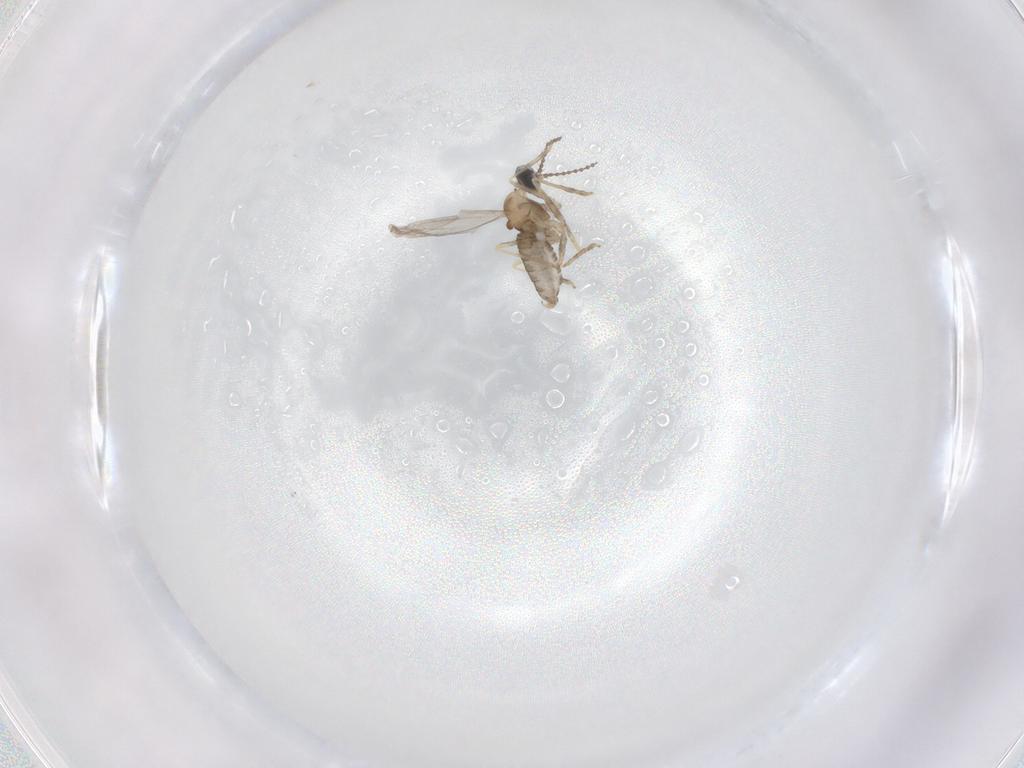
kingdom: Animalia
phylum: Arthropoda
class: Insecta
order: Diptera
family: Cecidomyiidae
